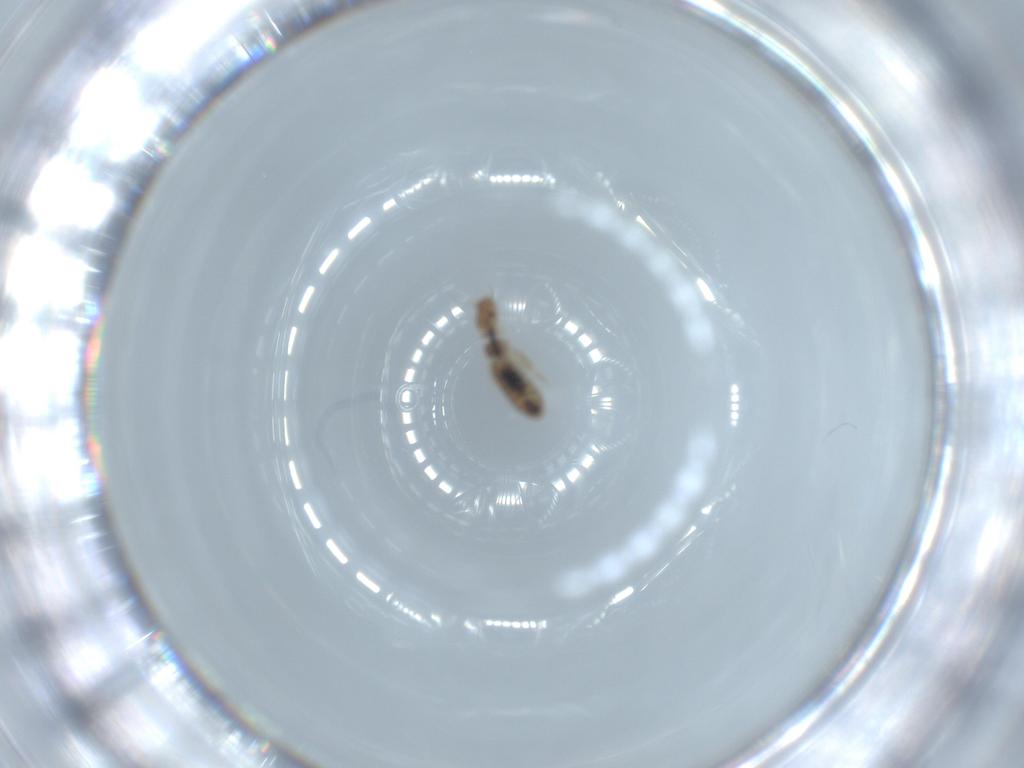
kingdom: Animalia
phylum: Arthropoda
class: Insecta
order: Psocodea
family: Liposcelididae
